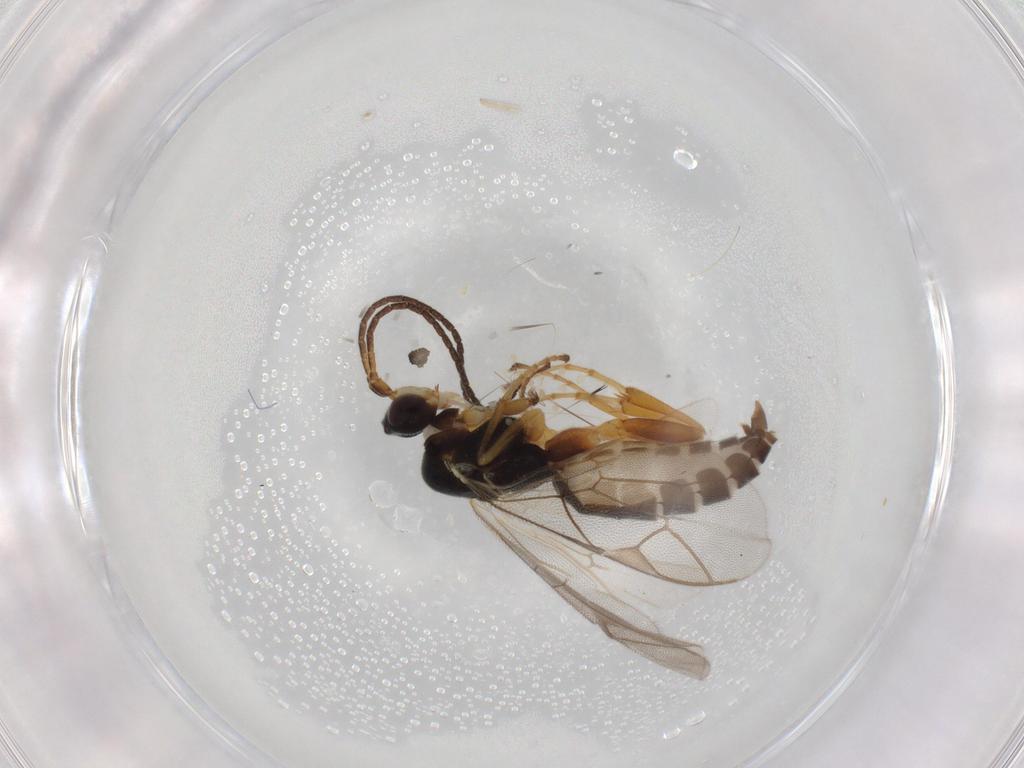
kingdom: Animalia
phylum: Arthropoda
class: Insecta
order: Hymenoptera
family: Ichneumonidae
